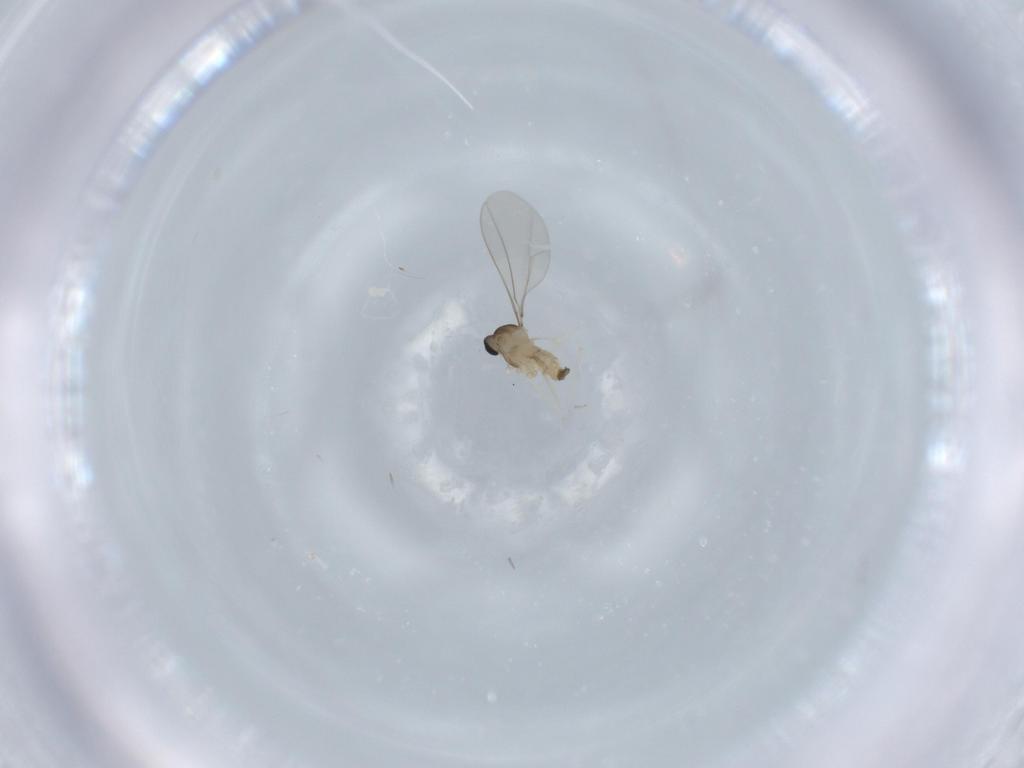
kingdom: Animalia
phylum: Arthropoda
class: Insecta
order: Diptera
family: Cecidomyiidae
